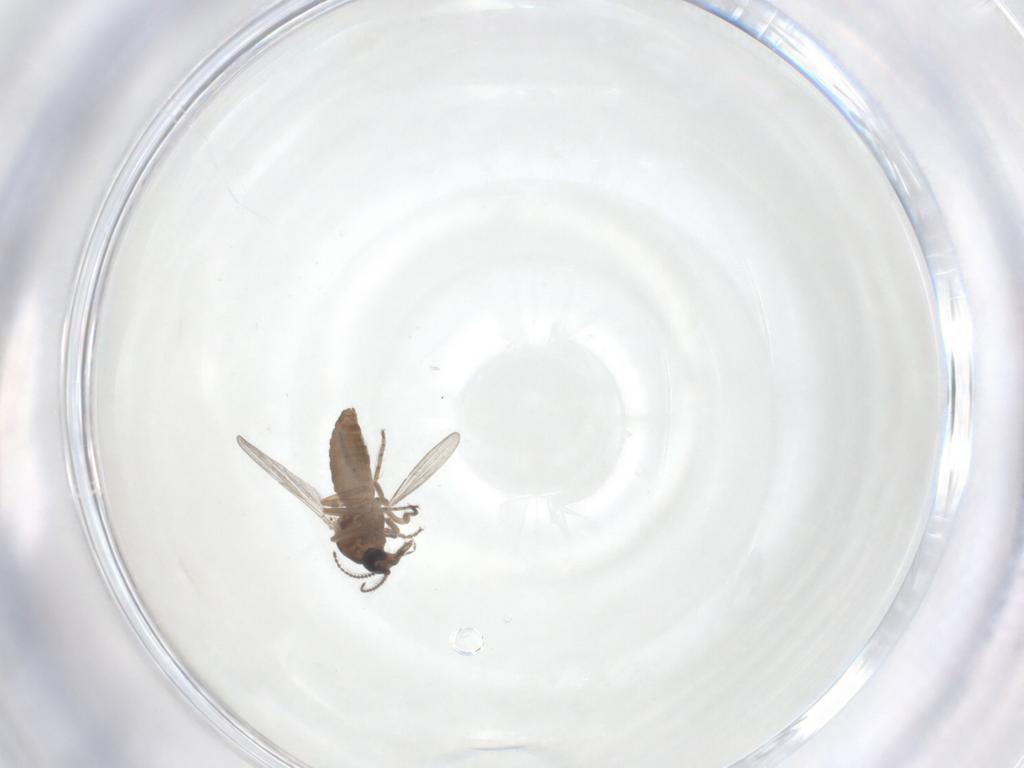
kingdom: Animalia
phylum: Arthropoda
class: Insecta
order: Diptera
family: Ceratopogonidae
